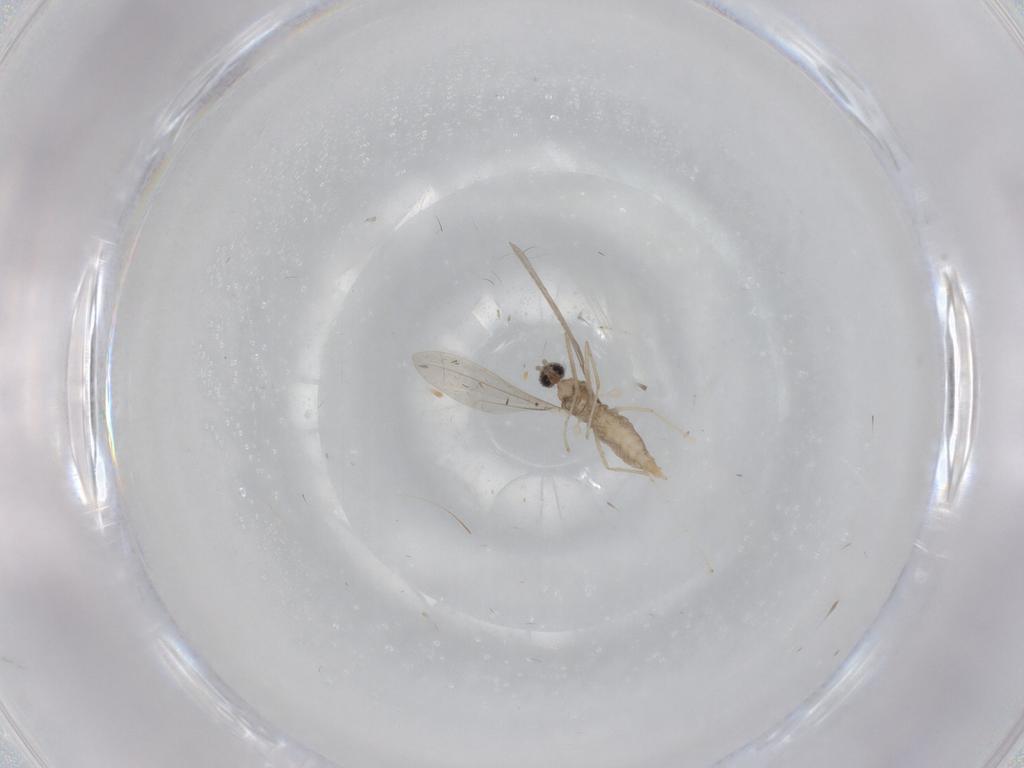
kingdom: Animalia
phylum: Arthropoda
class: Insecta
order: Diptera
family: Cecidomyiidae
